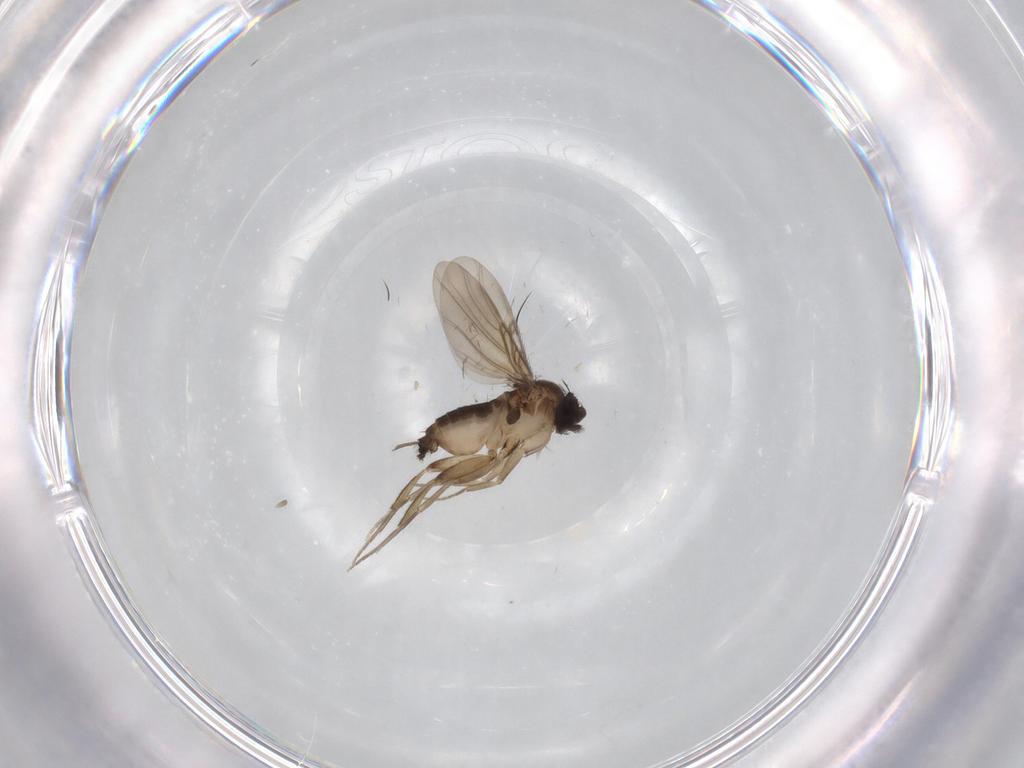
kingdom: Animalia
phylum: Arthropoda
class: Insecta
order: Diptera
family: Phoridae
